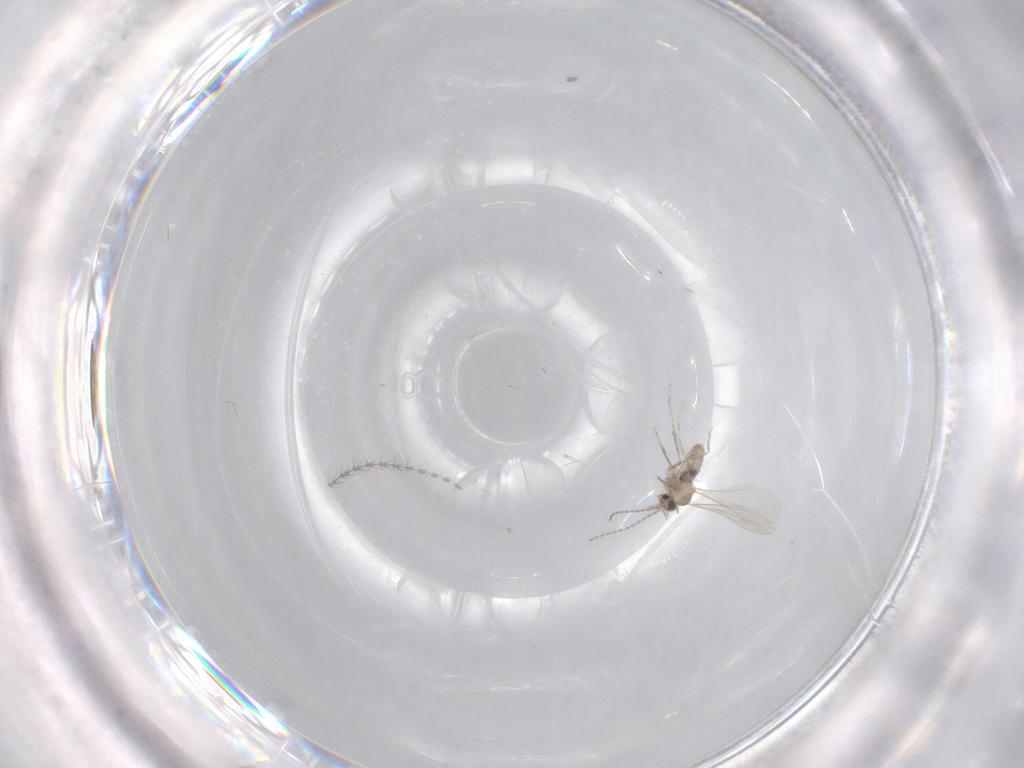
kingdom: Animalia
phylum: Arthropoda
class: Insecta
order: Diptera
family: Cecidomyiidae
